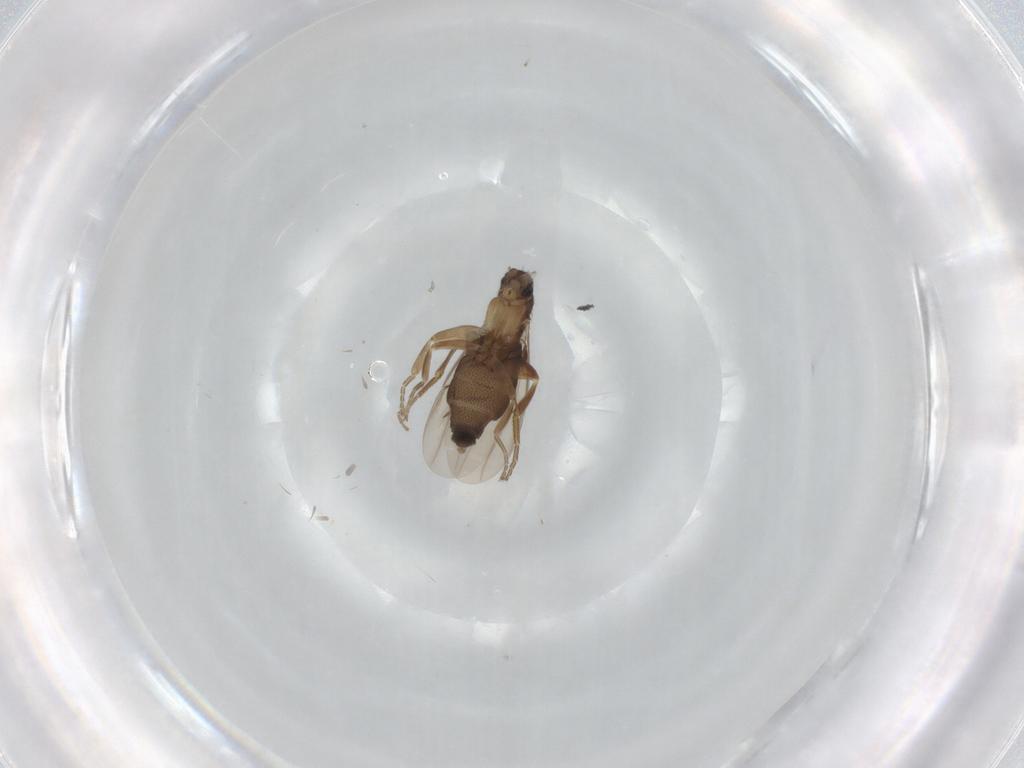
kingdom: Animalia
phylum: Arthropoda
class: Insecta
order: Diptera
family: Phoridae
